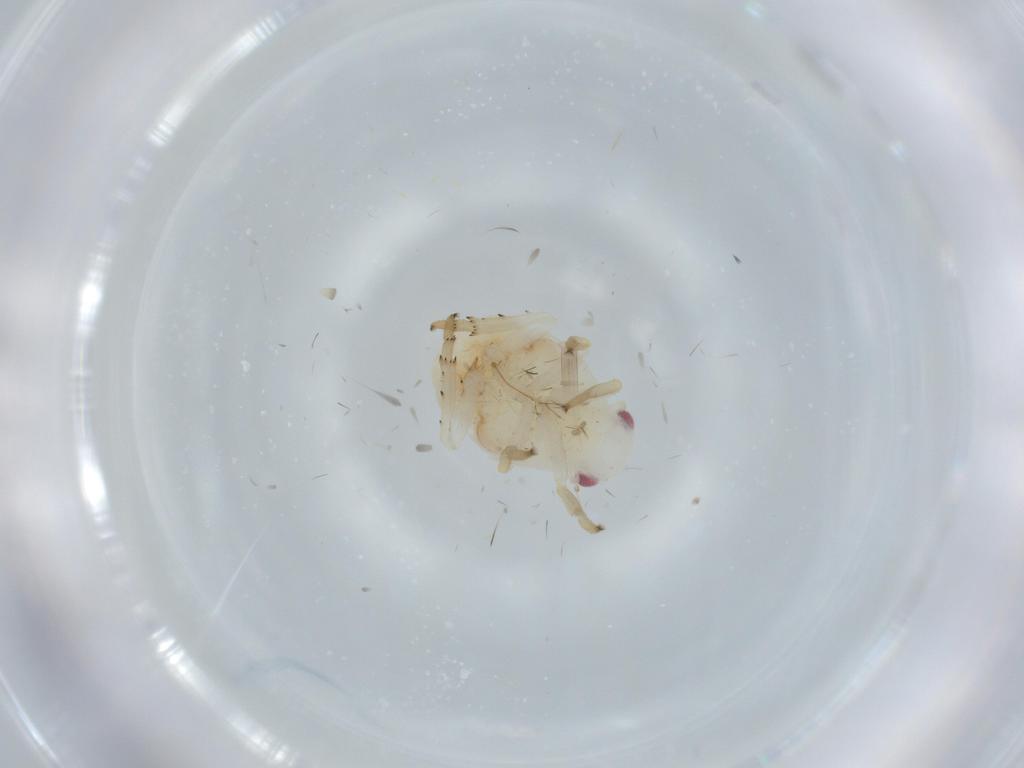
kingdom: Animalia
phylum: Arthropoda
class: Insecta
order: Hemiptera
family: Flatidae
